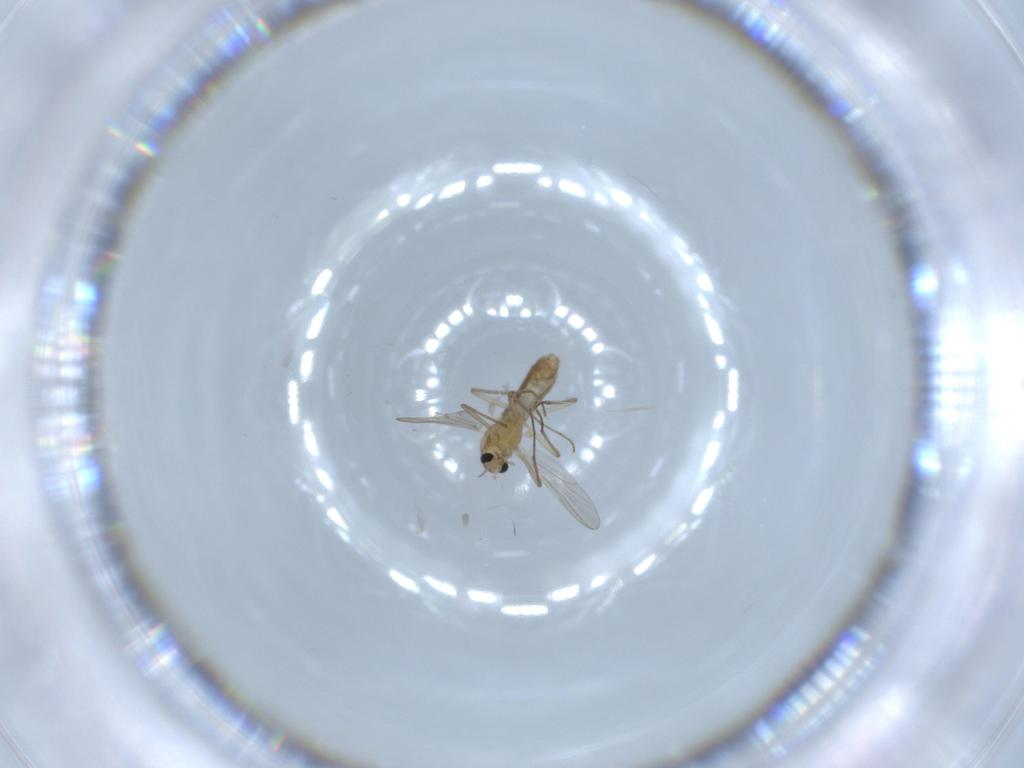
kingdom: Animalia
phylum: Arthropoda
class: Insecta
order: Diptera
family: Chironomidae
